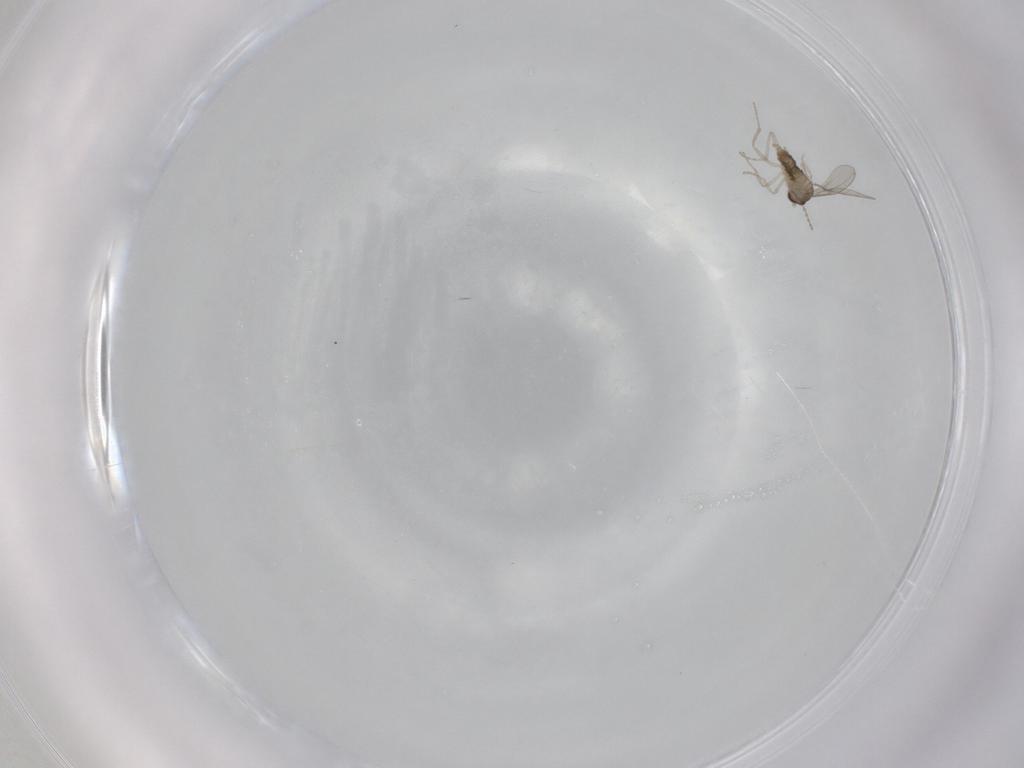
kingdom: Animalia
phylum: Arthropoda
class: Insecta
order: Diptera
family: Cecidomyiidae
